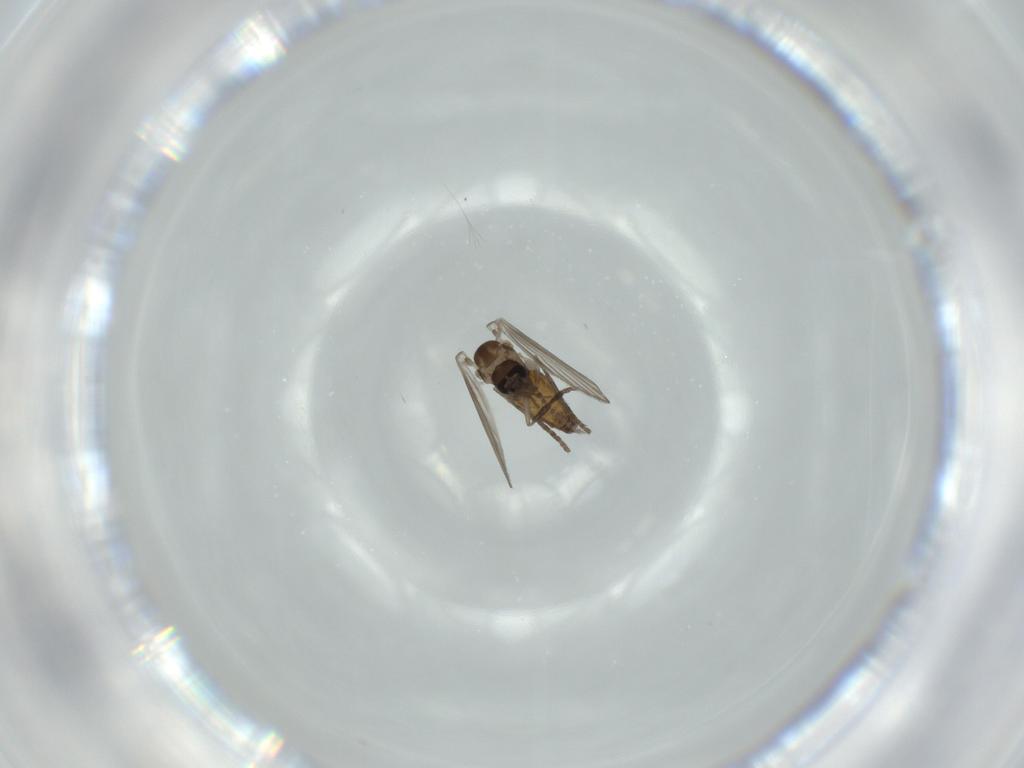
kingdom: Animalia
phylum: Arthropoda
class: Insecta
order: Diptera
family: Psychodidae
